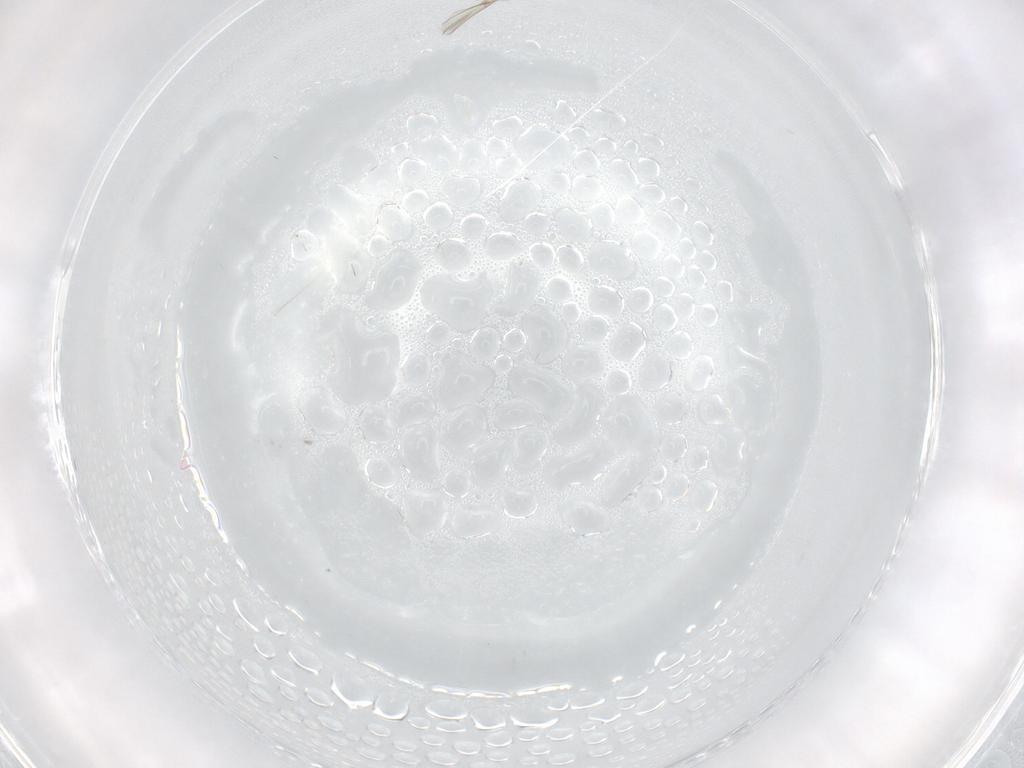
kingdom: Animalia
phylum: Arthropoda
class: Insecta
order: Diptera
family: Cecidomyiidae
